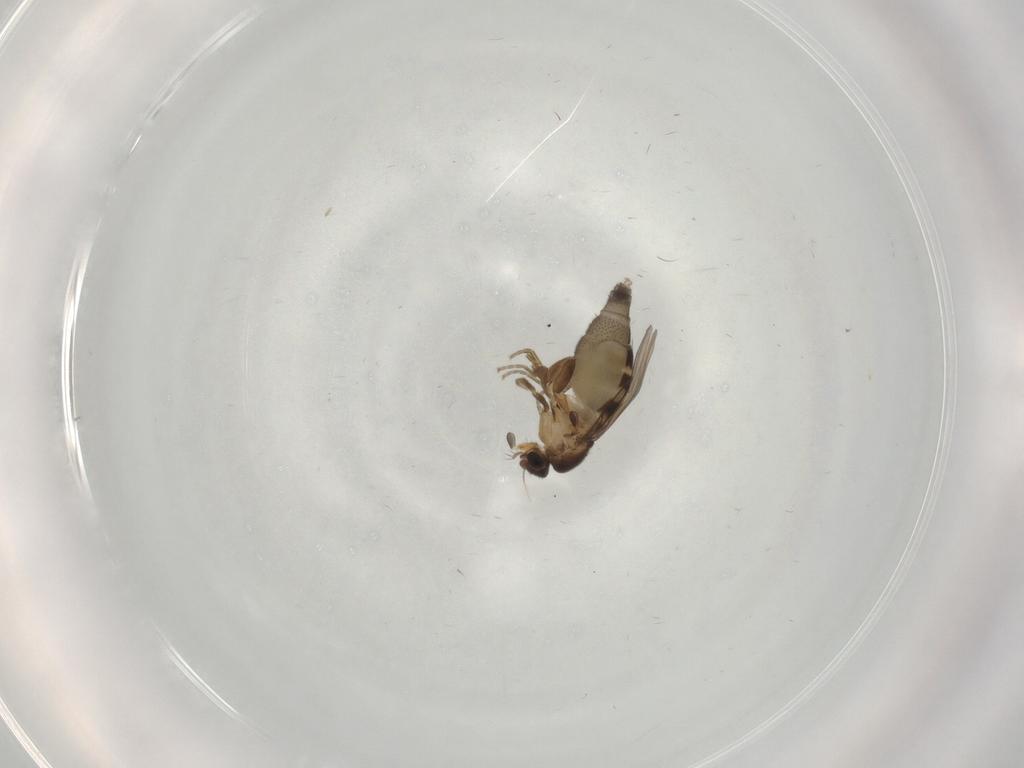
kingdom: Animalia
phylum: Arthropoda
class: Insecta
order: Diptera
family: Phoridae
